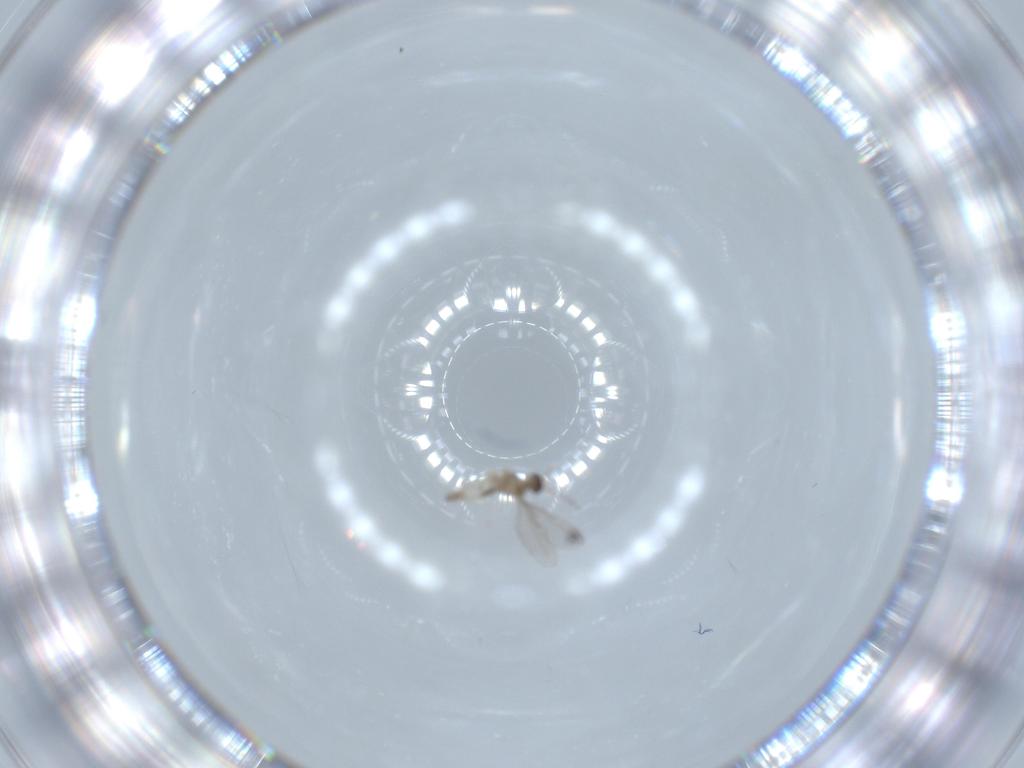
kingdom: Animalia
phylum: Arthropoda
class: Insecta
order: Diptera
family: Cecidomyiidae
